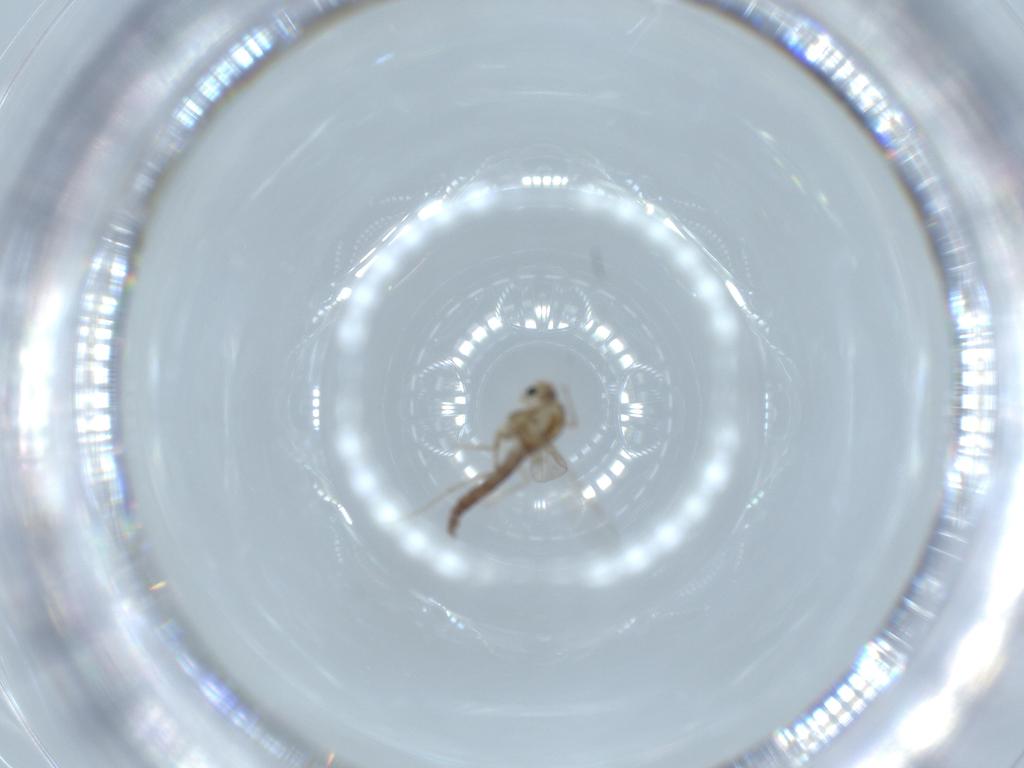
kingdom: Animalia
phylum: Arthropoda
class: Insecta
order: Diptera
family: Chironomidae
